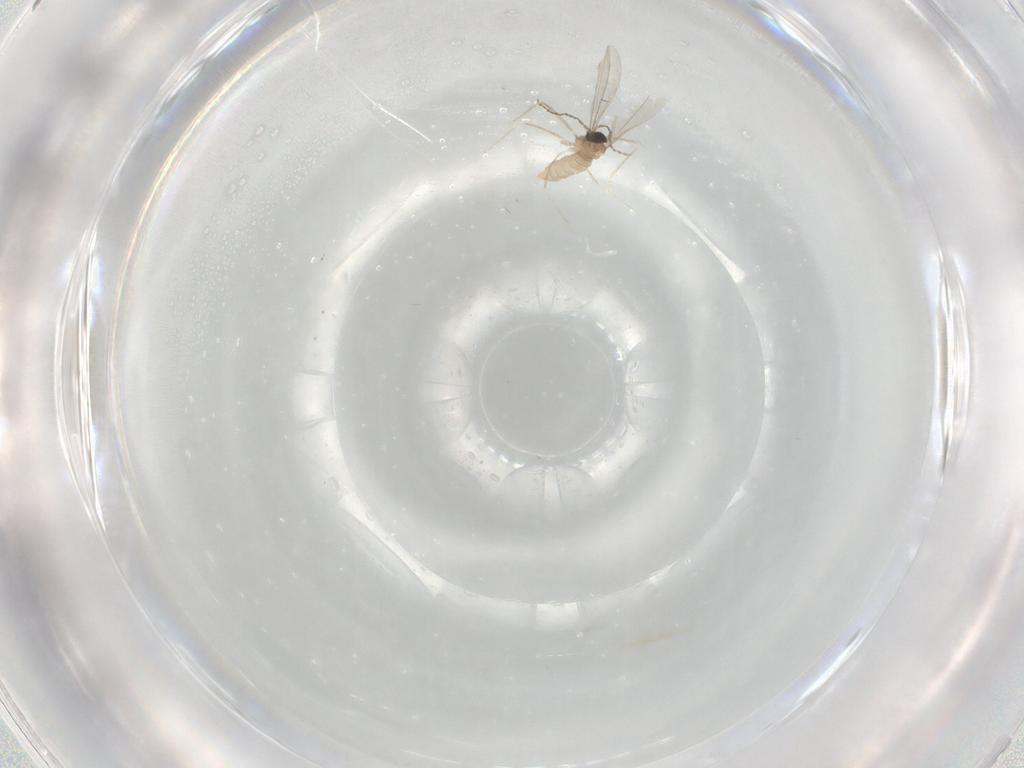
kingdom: Animalia
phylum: Arthropoda
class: Insecta
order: Diptera
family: Cecidomyiidae
